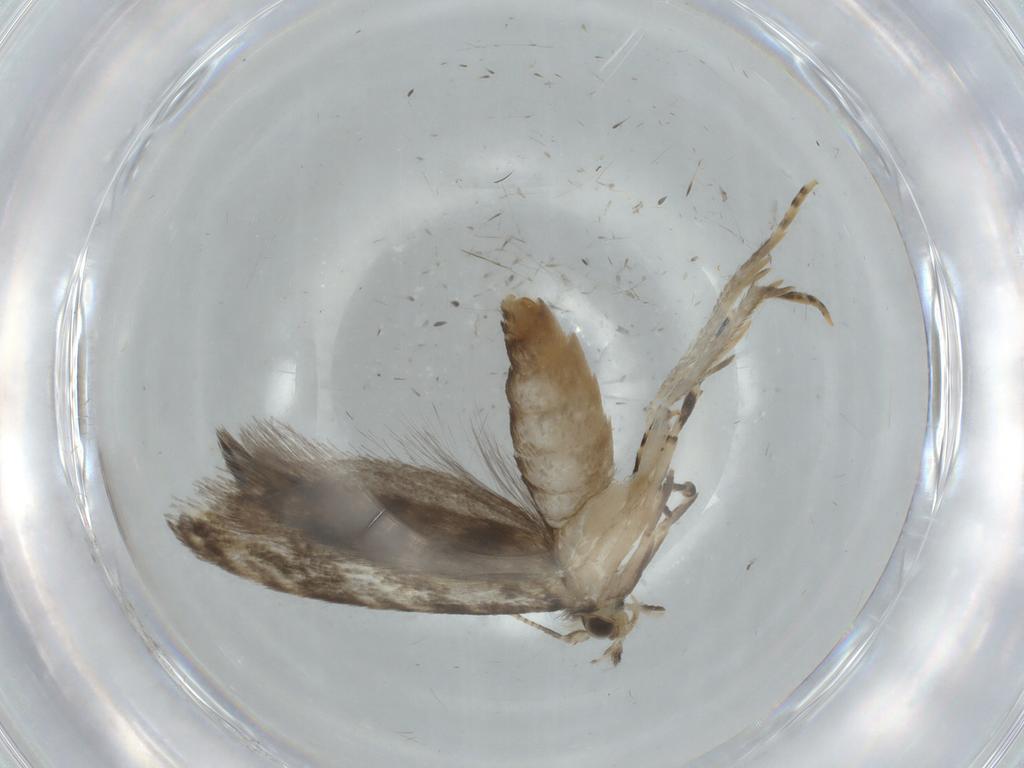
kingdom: Animalia
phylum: Arthropoda
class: Insecta
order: Lepidoptera
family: Tineidae
